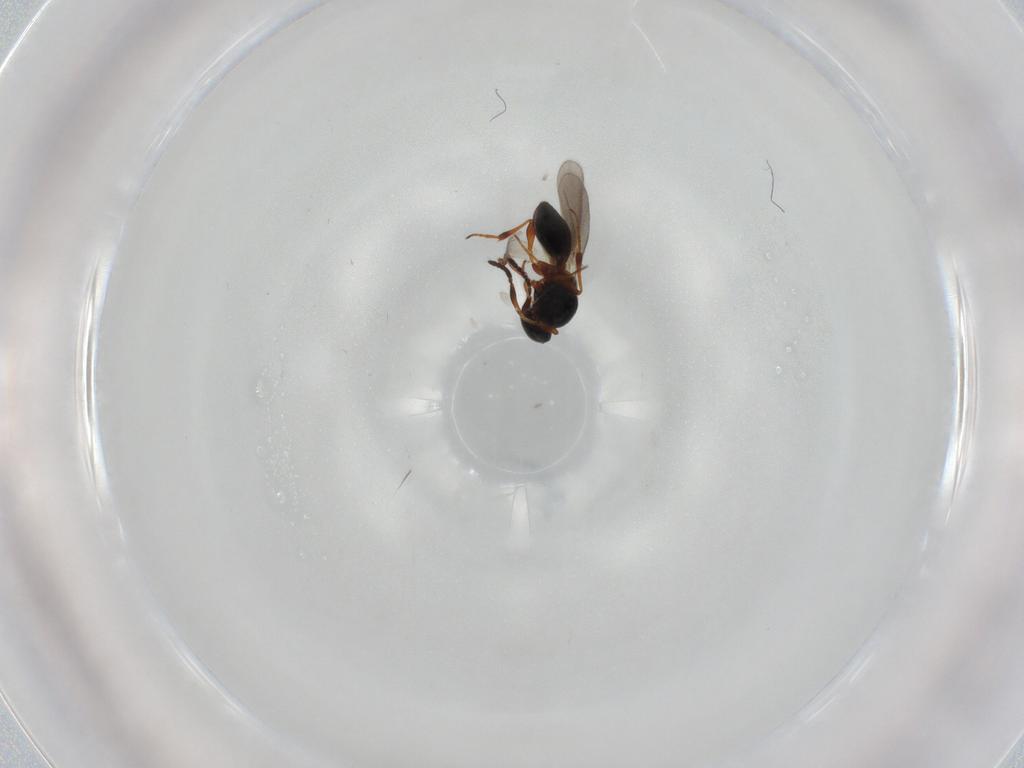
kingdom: Animalia
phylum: Arthropoda
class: Insecta
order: Hymenoptera
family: Platygastridae
